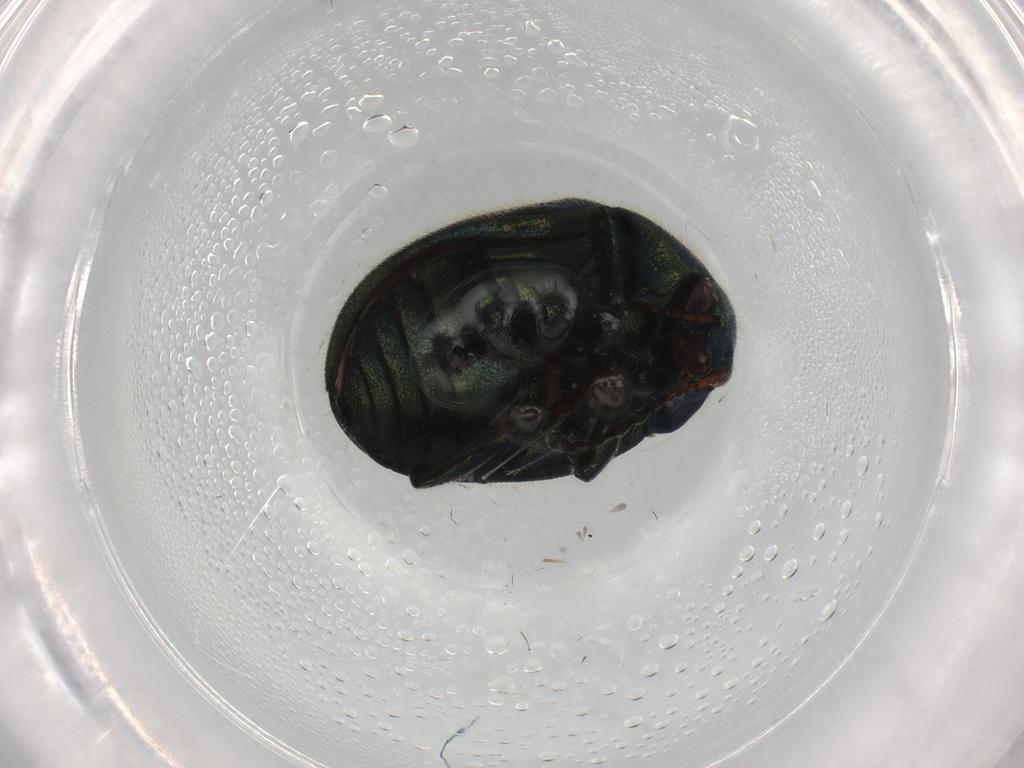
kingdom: Animalia
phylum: Arthropoda
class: Insecta
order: Coleoptera
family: Chrysomelidae
